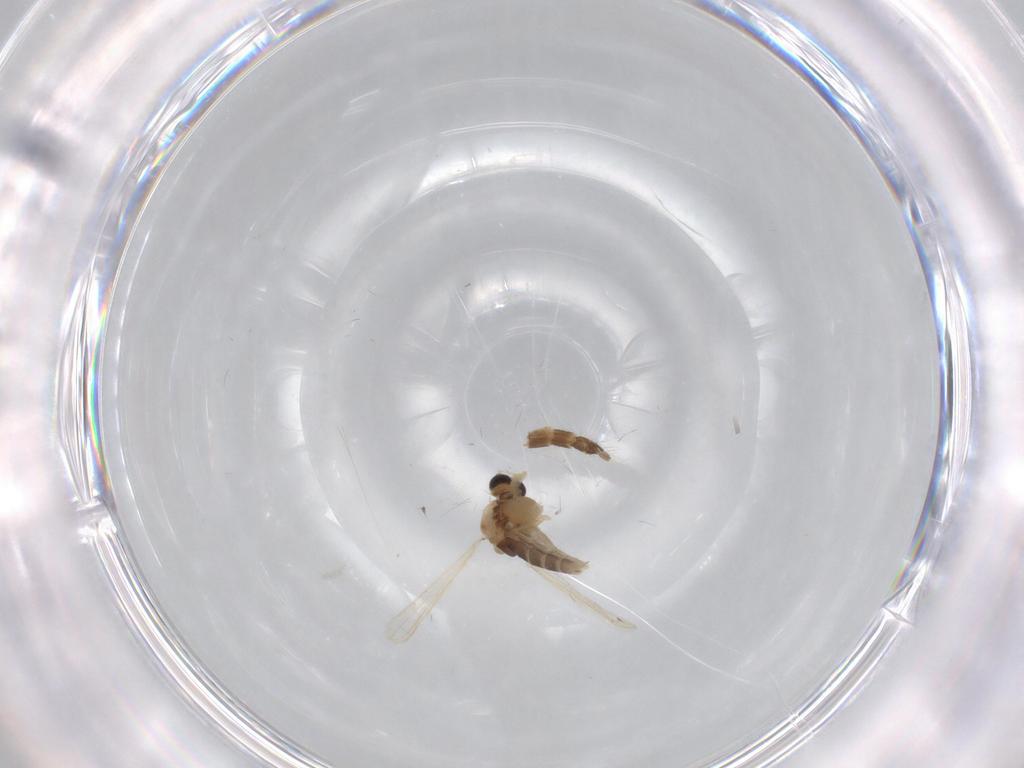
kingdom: Animalia
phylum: Arthropoda
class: Insecta
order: Diptera
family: Chironomidae
